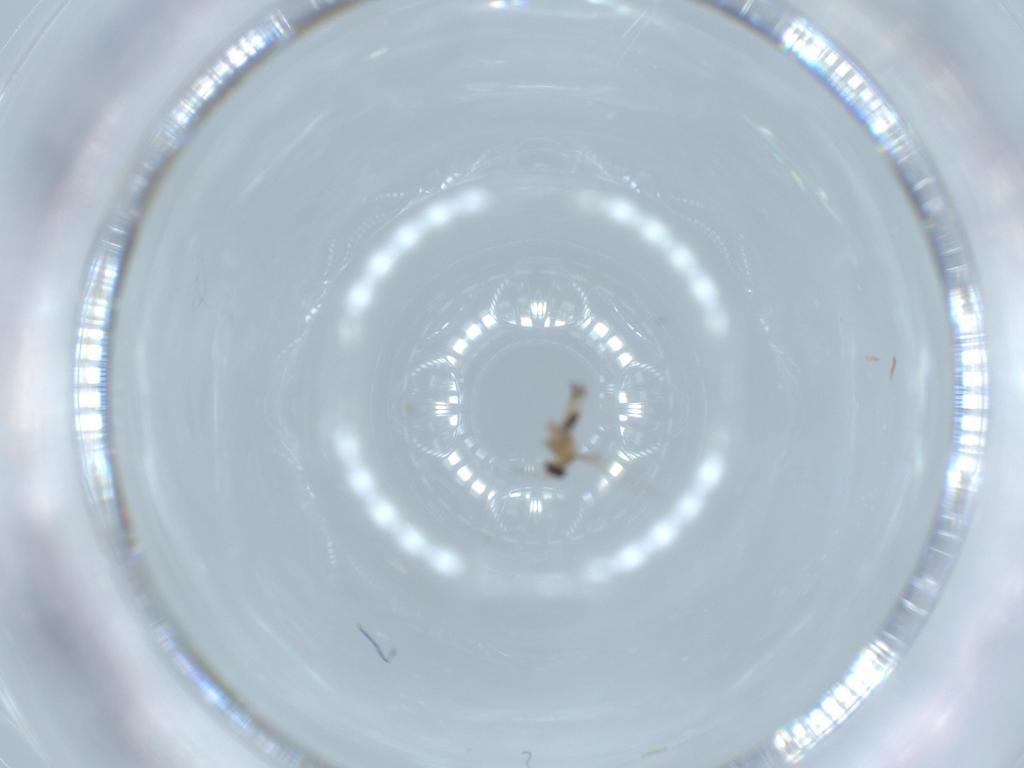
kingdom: Animalia
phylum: Arthropoda
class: Insecta
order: Diptera
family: Cecidomyiidae
